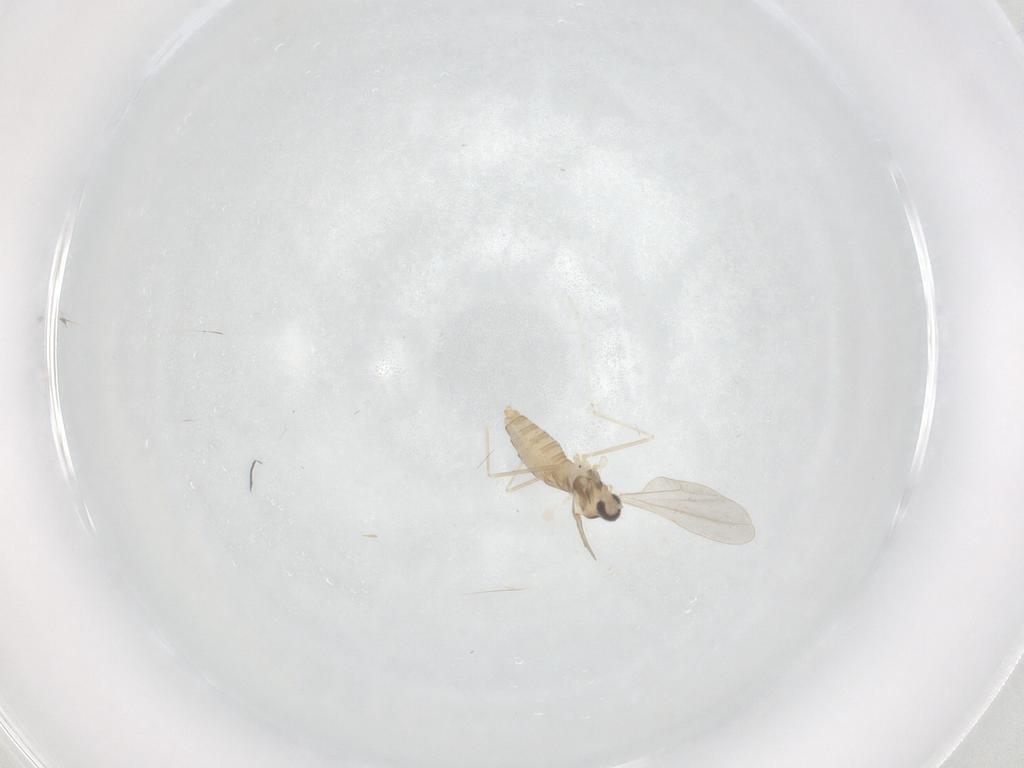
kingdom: Animalia
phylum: Arthropoda
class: Insecta
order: Diptera
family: Cecidomyiidae
